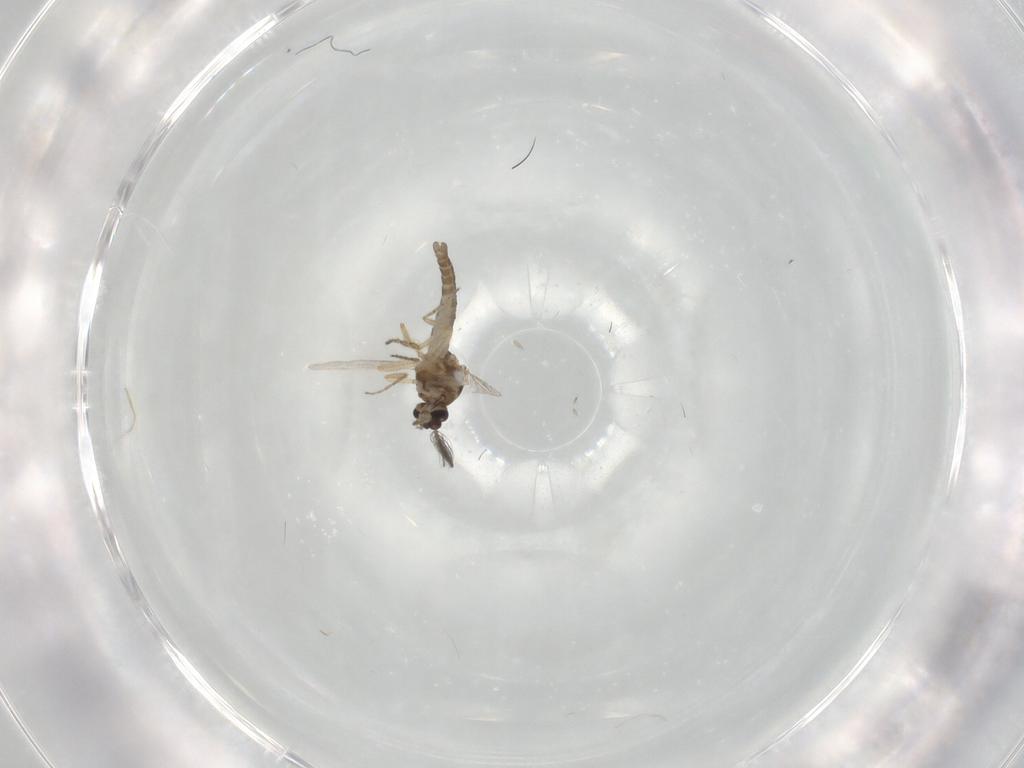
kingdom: Animalia
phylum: Arthropoda
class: Insecta
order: Diptera
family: Ceratopogonidae
